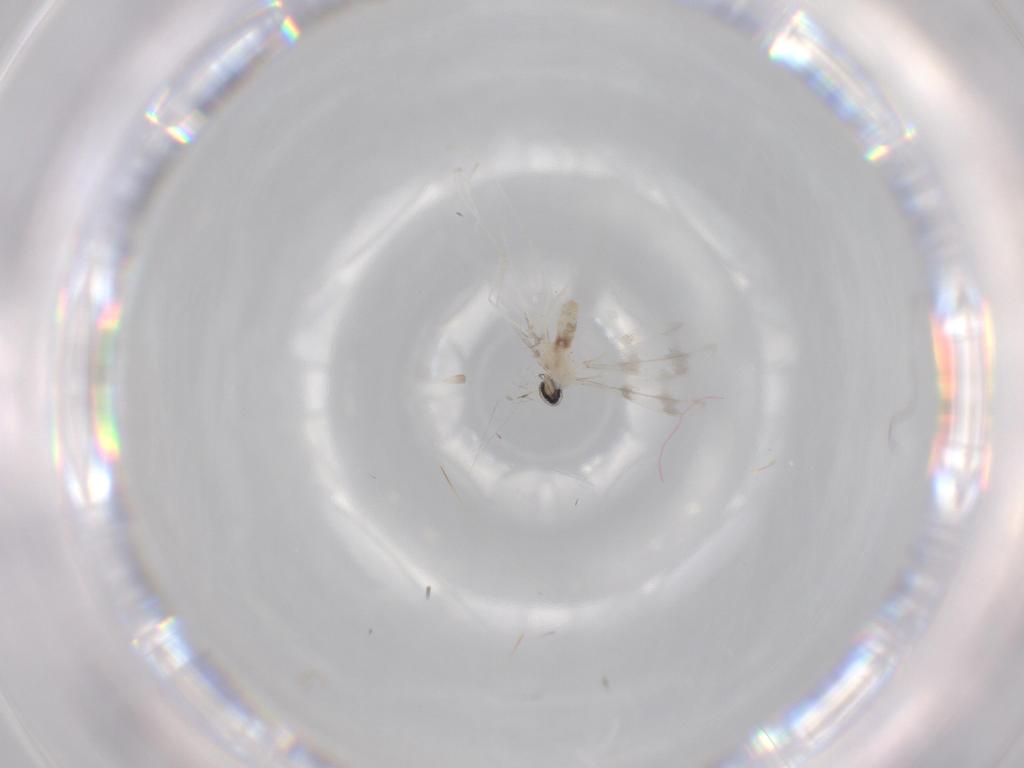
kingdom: Animalia
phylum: Arthropoda
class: Insecta
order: Diptera
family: Cecidomyiidae
